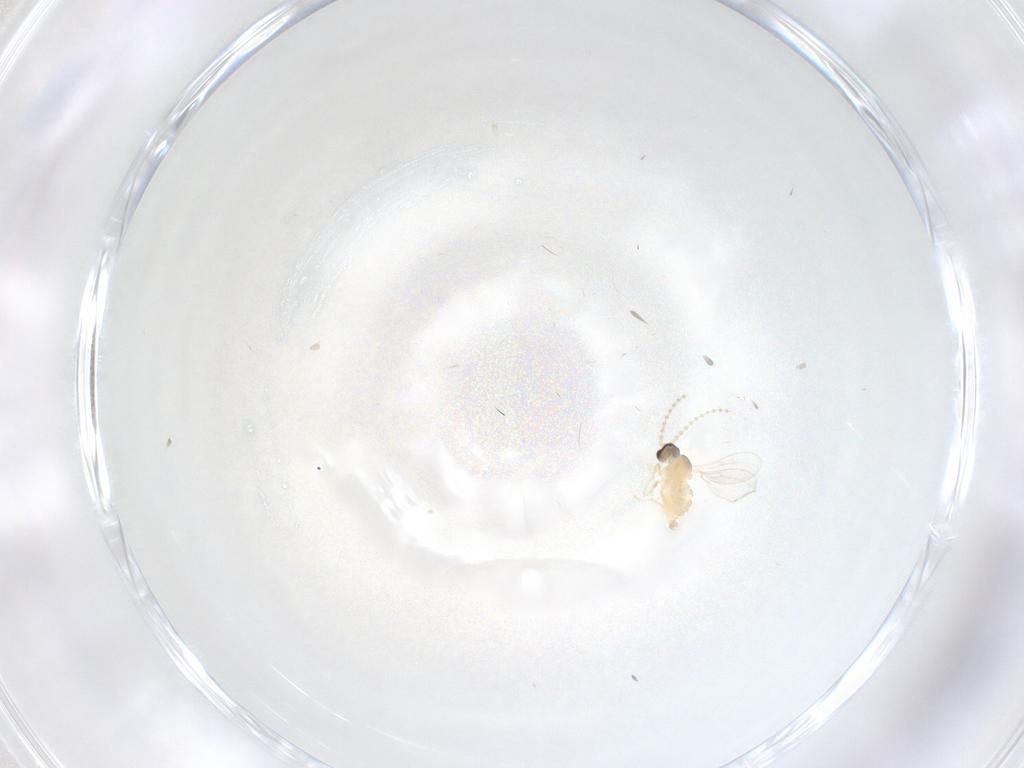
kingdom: Animalia
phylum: Arthropoda
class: Insecta
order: Diptera
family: Cecidomyiidae
